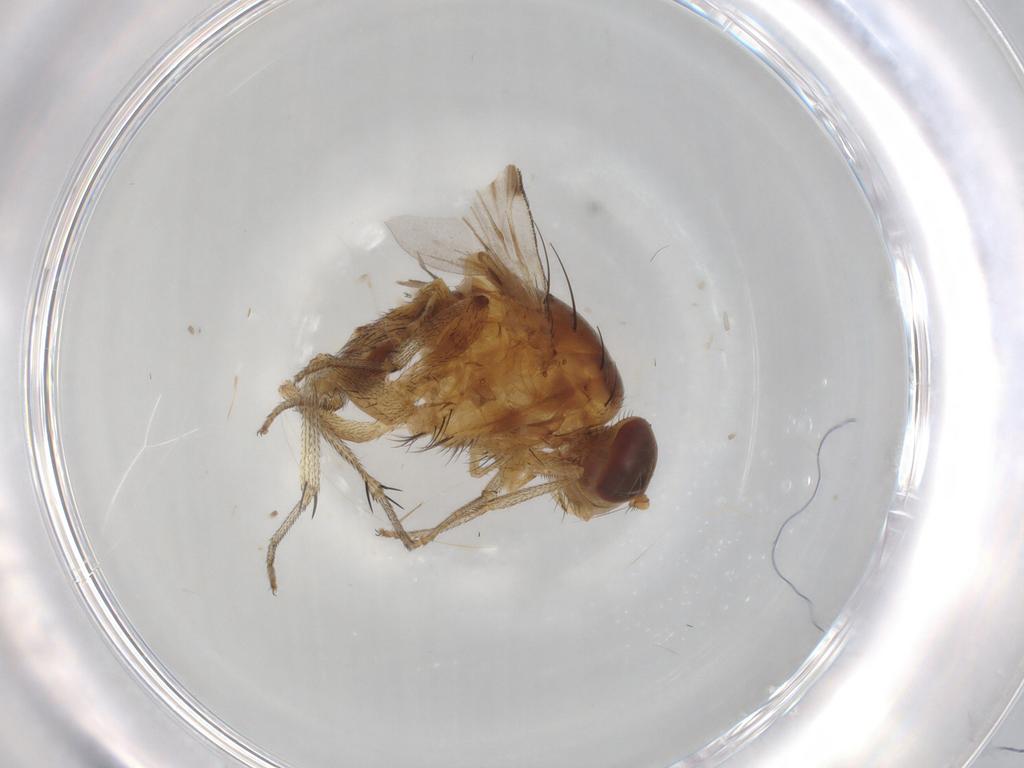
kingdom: Animalia
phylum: Arthropoda
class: Insecta
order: Diptera
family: Lauxaniidae
